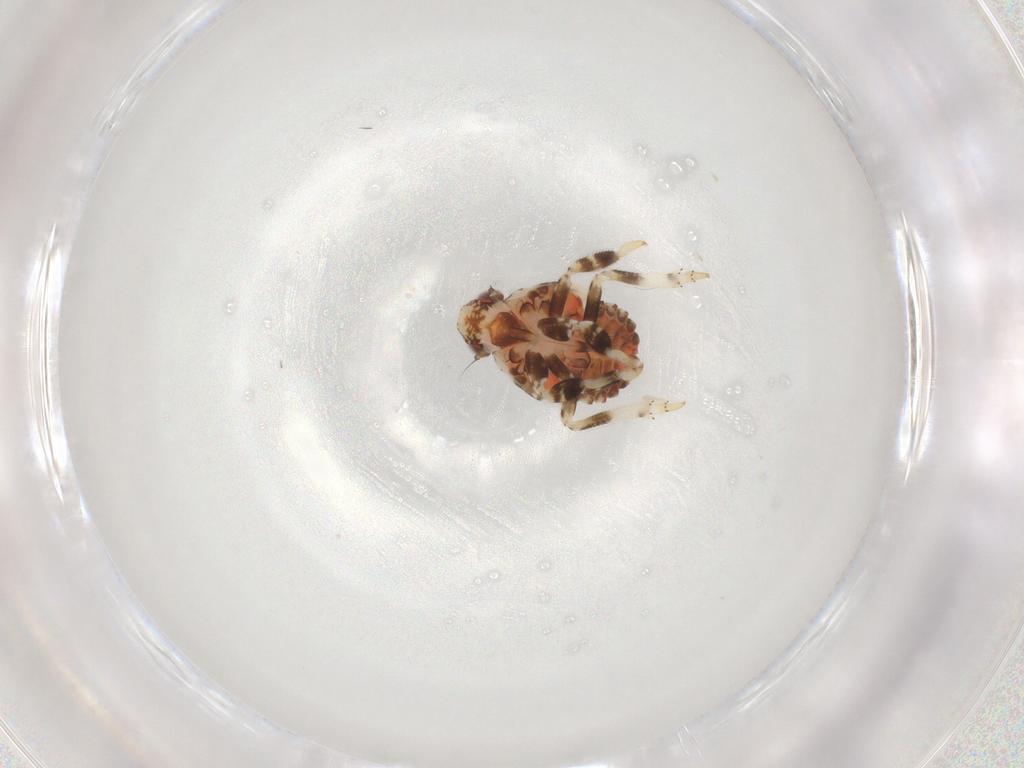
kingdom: Animalia
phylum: Arthropoda
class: Insecta
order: Hemiptera
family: Fulgoroidea_incertae_sedis
